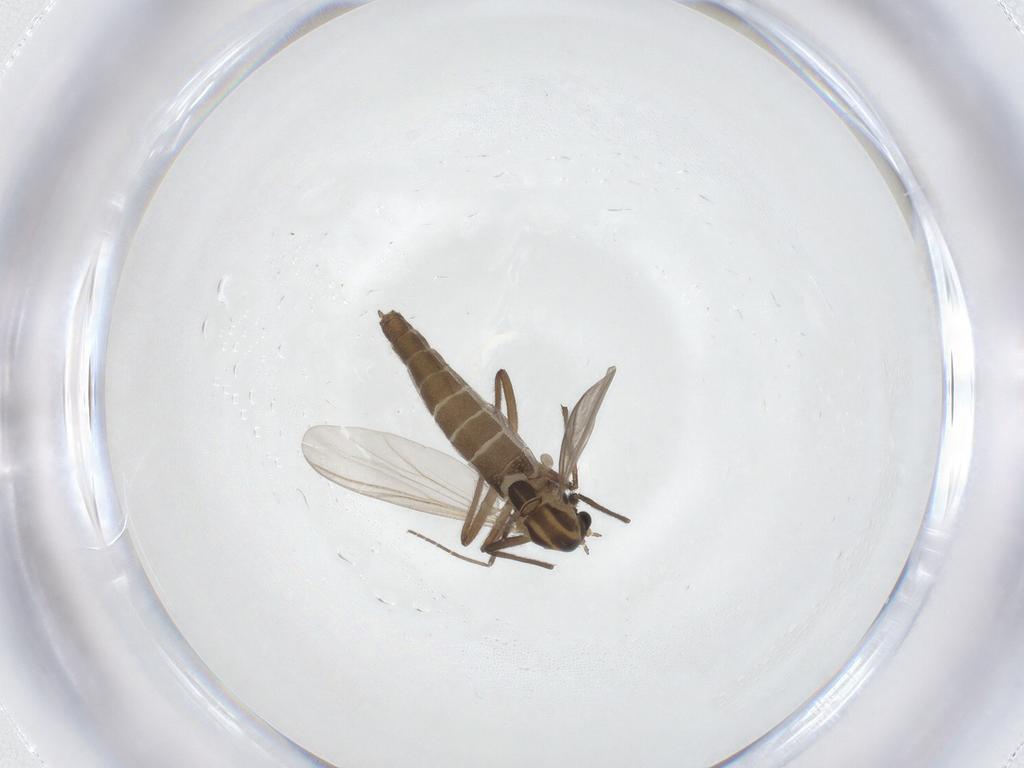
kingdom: Animalia
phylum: Arthropoda
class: Insecta
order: Diptera
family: Chironomidae
